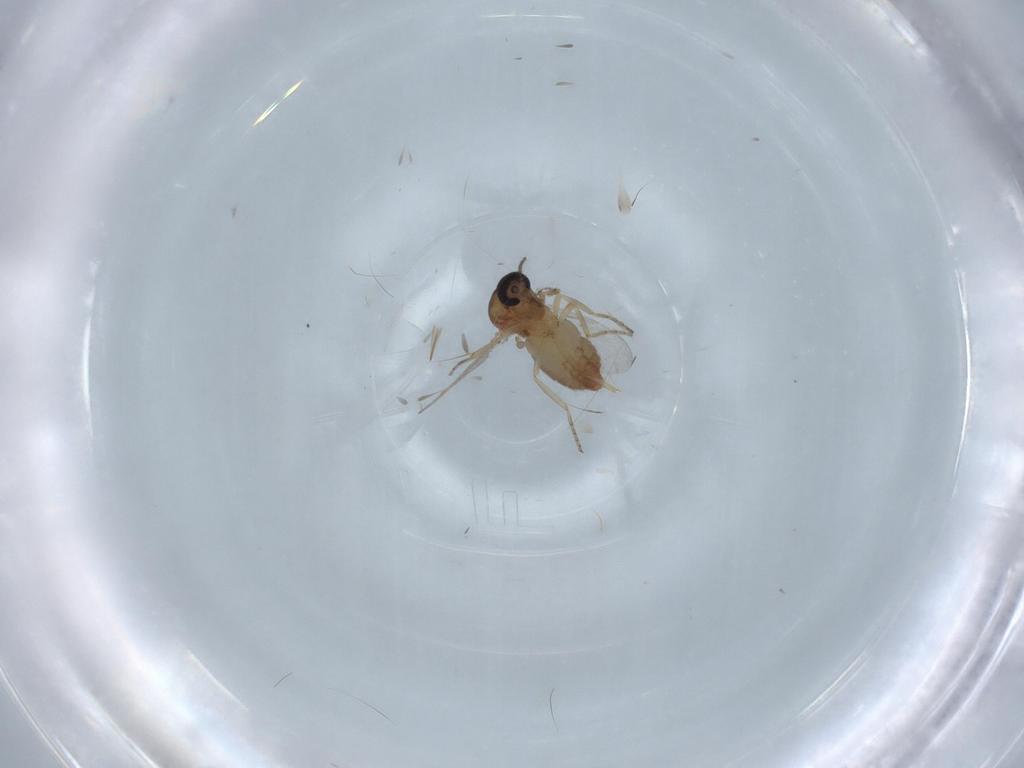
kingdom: Animalia
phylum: Arthropoda
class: Insecta
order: Diptera
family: Ceratopogonidae
